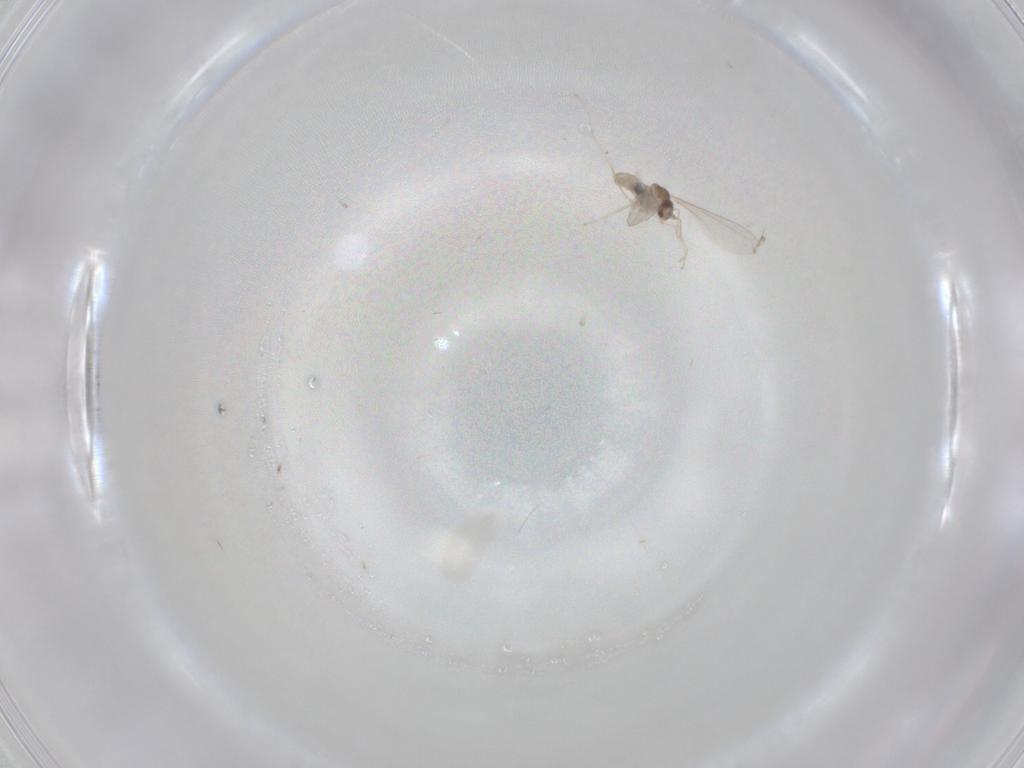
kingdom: Animalia
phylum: Arthropoda
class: Insecta
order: Diptera
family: Cecidomyiidae
